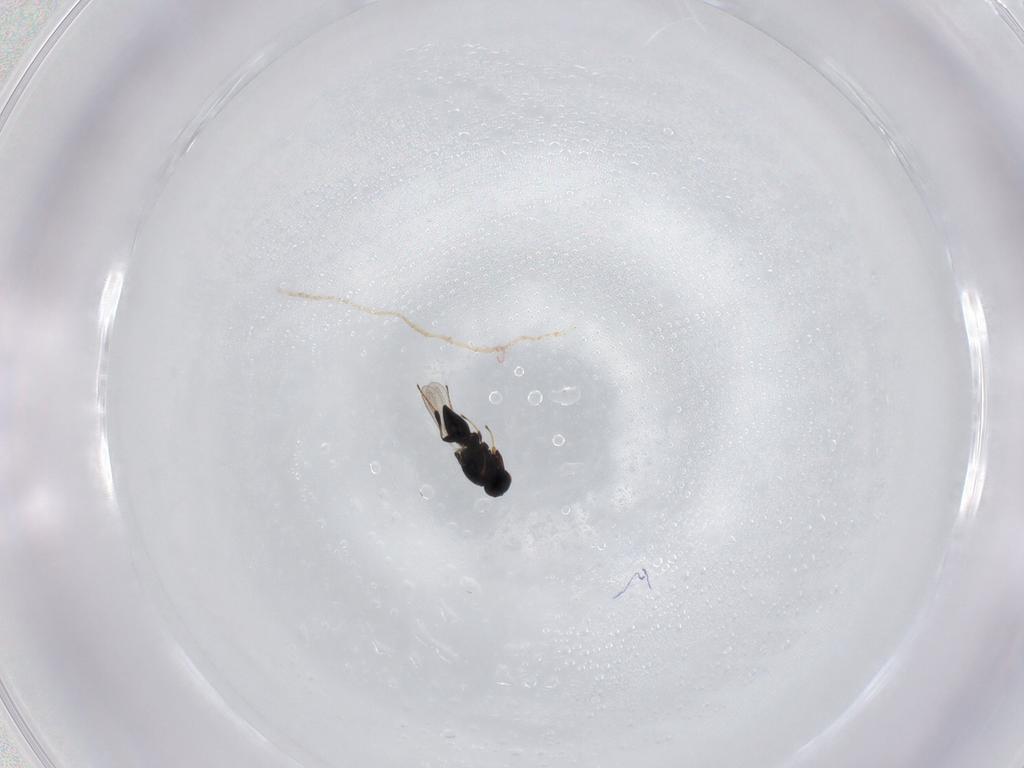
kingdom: Animalia
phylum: Arthropoda
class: Insecta
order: Hymenoptera
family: Platygastridae
